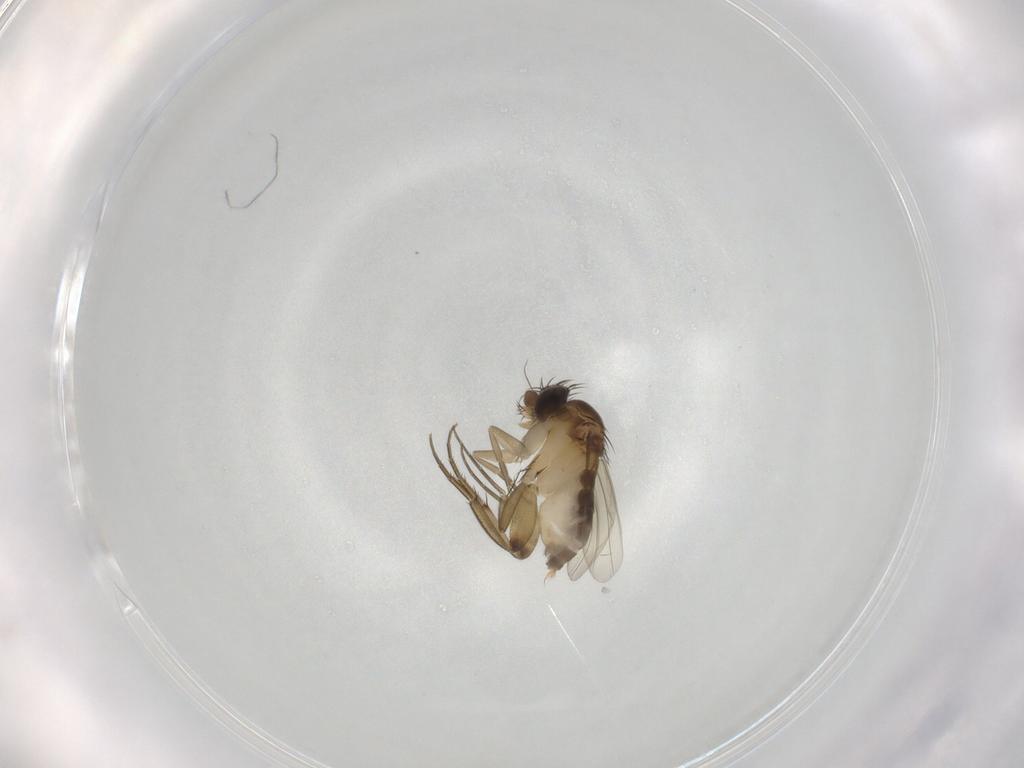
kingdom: Animalia
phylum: Arthropoda
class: Insecta
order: Diptera
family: Phoridae
